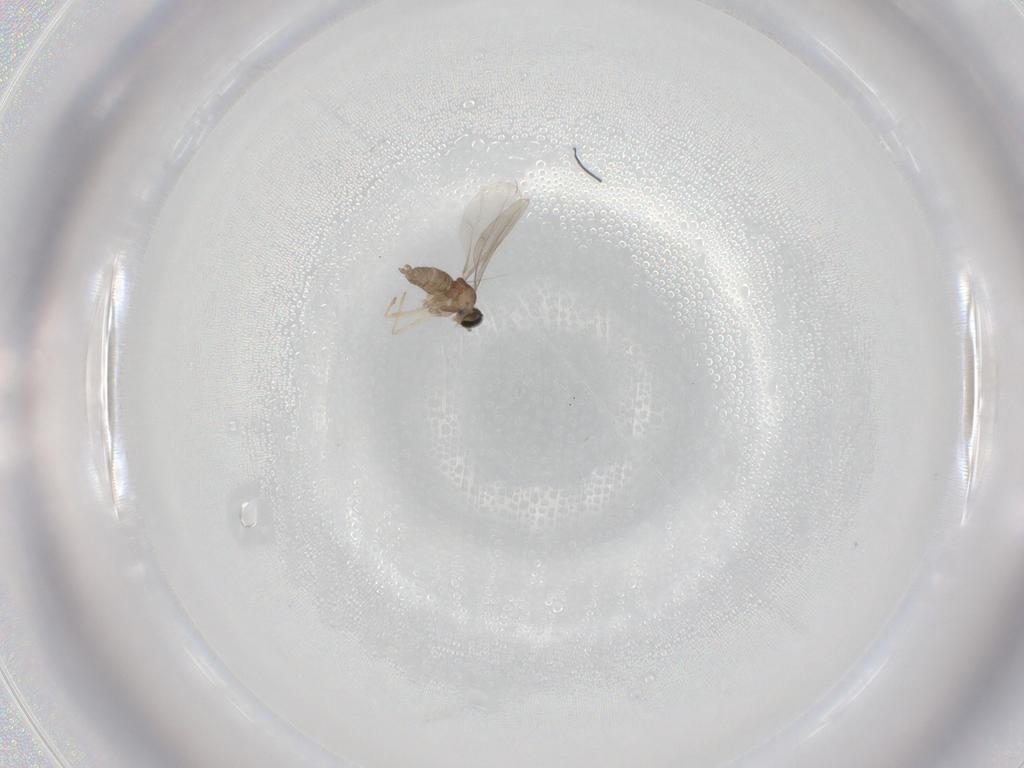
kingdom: Animalia
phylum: Arthropoda
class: Insecta
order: Diptera
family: Cecidomyiidae
